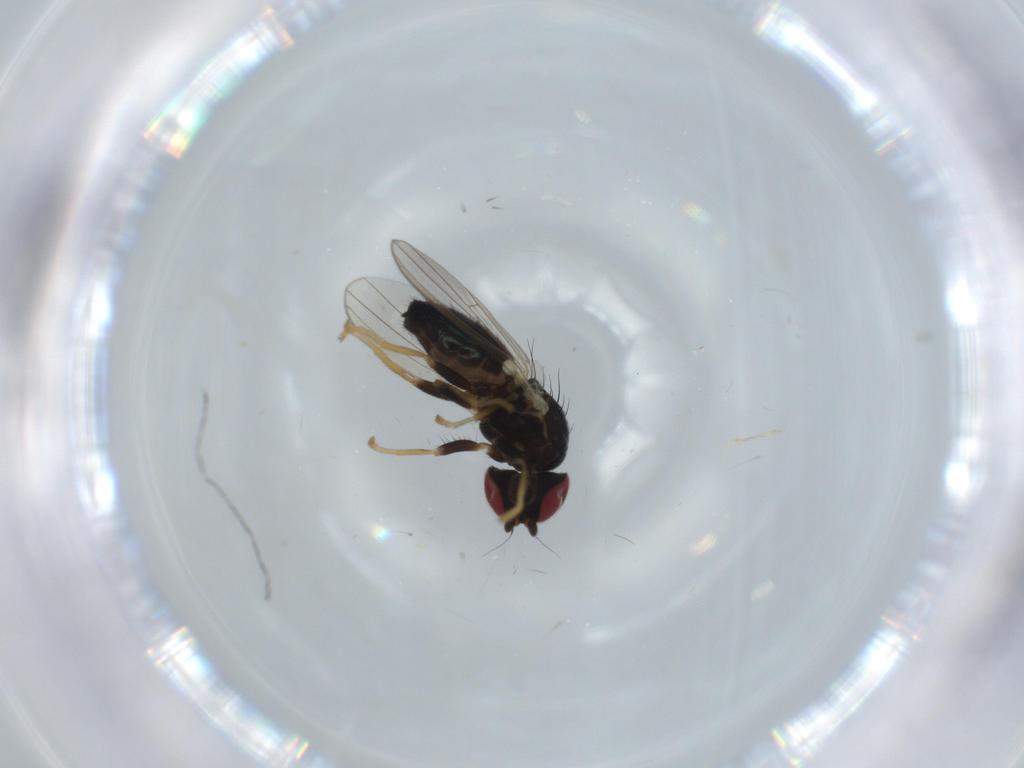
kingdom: Animalia
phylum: Arthropoda
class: Insecta
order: Diptera
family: Chamaemyiidae
